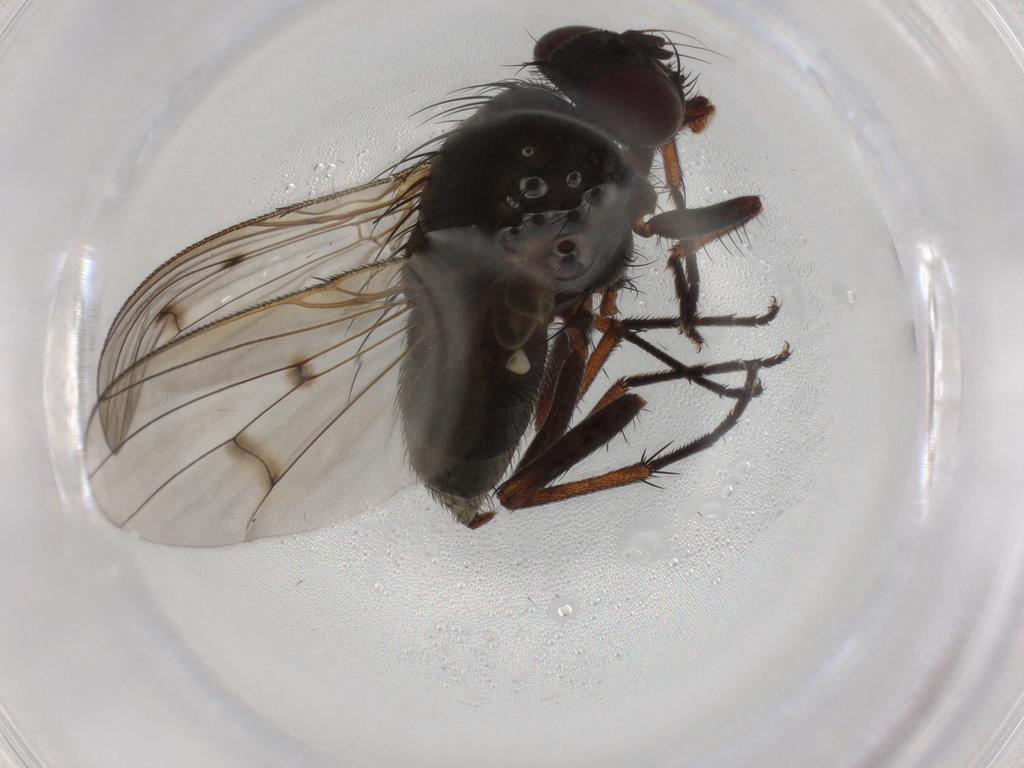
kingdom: Animalia
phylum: Arthropoda
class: Insecta
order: Diptera
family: Muscidae
